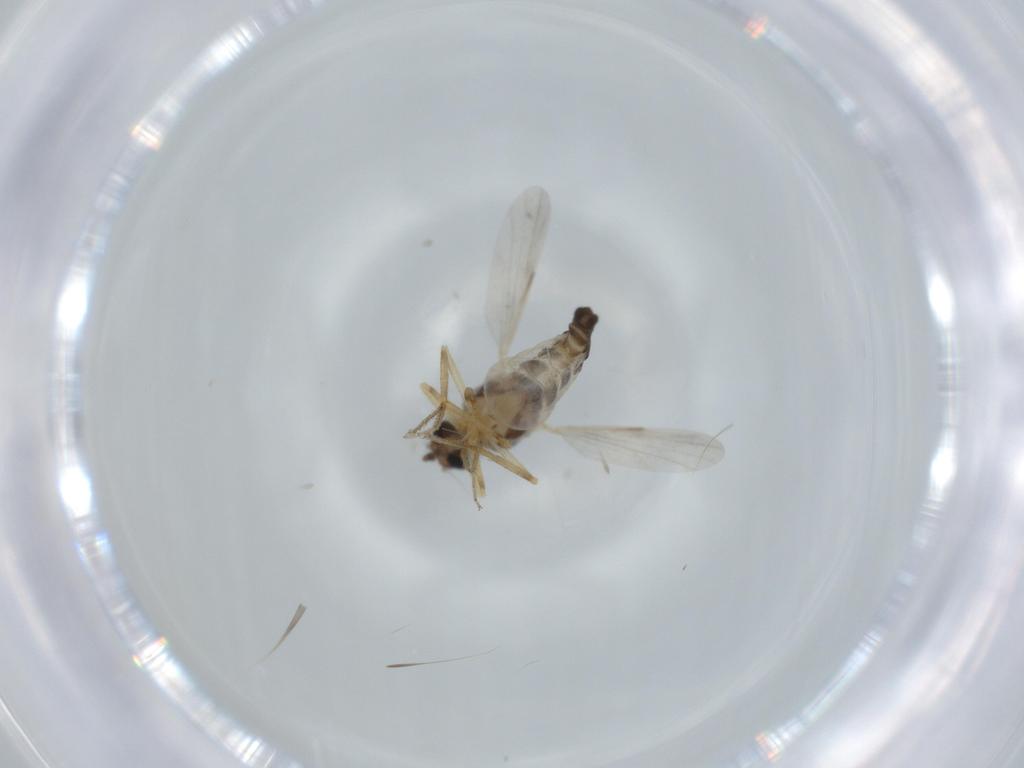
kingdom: Animalia
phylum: Arthropoda
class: Insecta
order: Diptera
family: Ceratopogonidae
